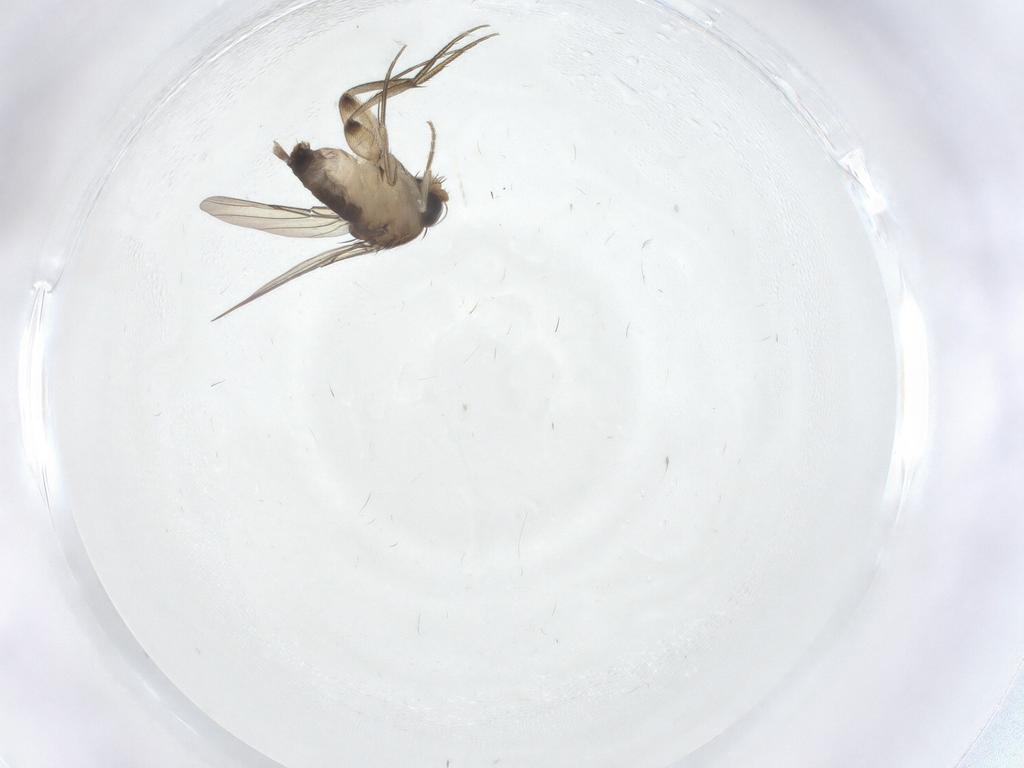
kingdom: Animalia
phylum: Arthropoda
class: Insecta
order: Diptera
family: Phoridae
